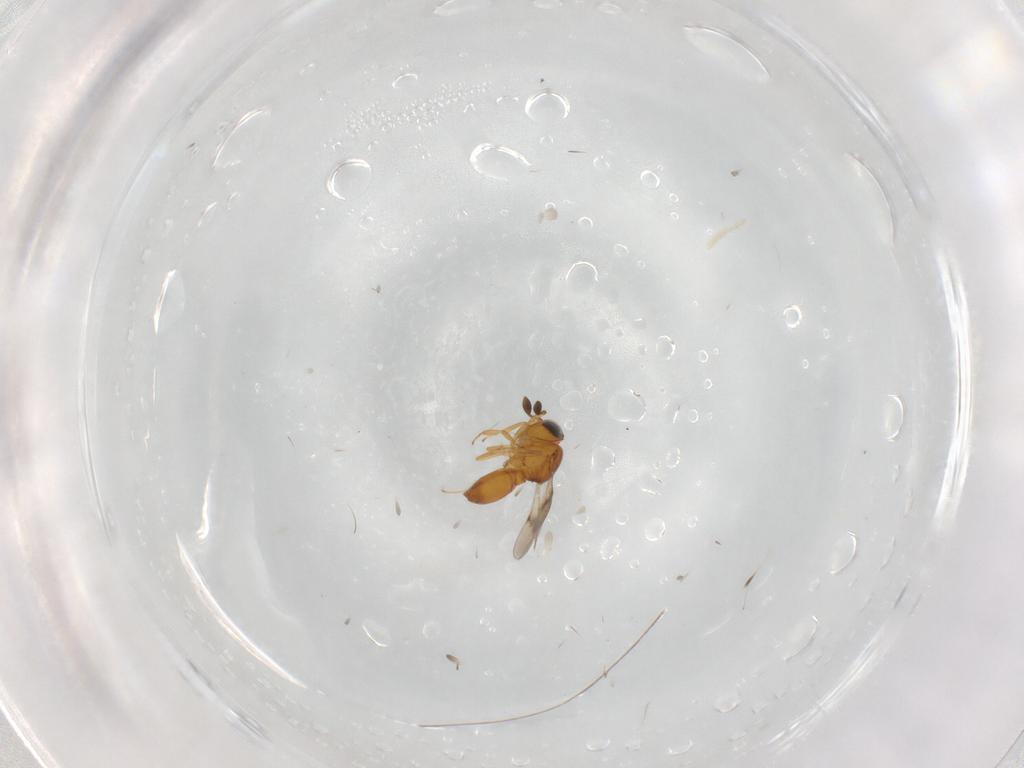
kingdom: Animalia
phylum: Arthropoda
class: Insecta
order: Hymenoptera
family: Scelionidae
